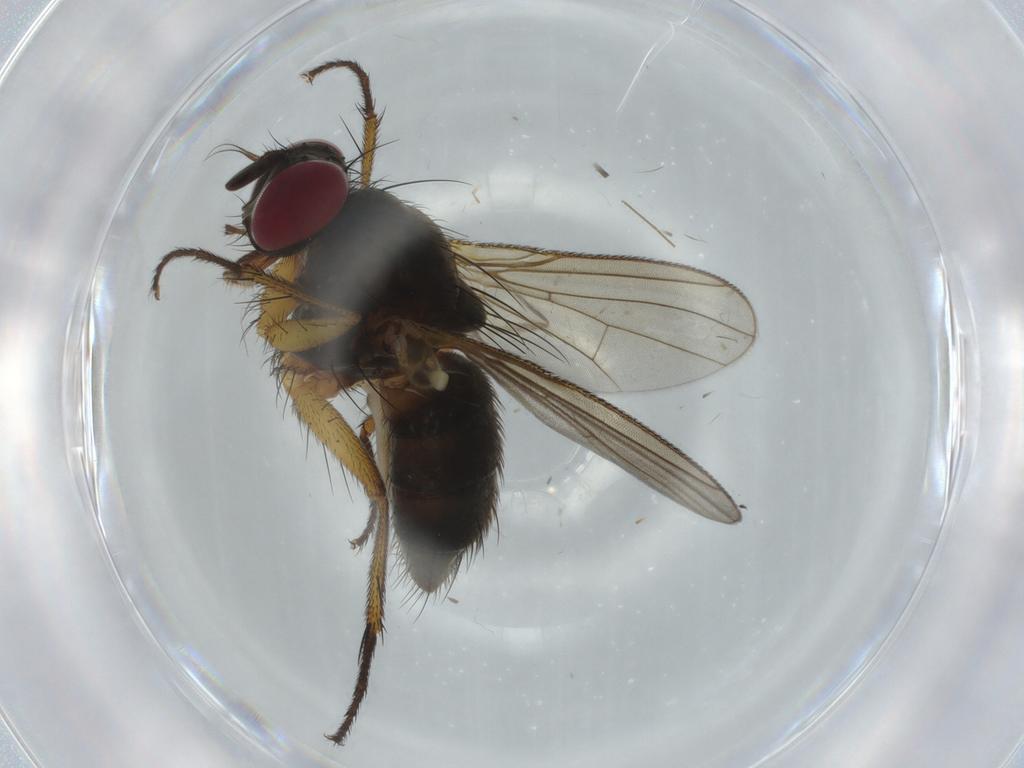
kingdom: Animalia
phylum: Arthropoda
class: Insecta
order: Diptera
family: Muscidae
